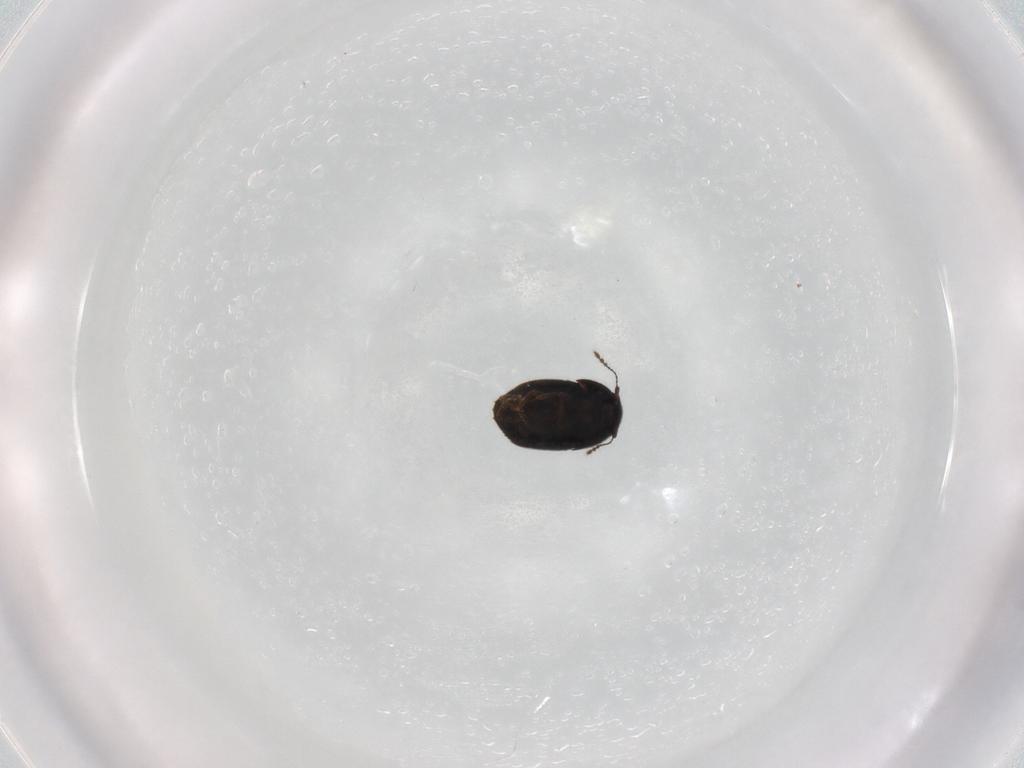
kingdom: Animalia
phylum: Arthropoda
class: Insecta
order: Coleoptera
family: Ptiliidae
